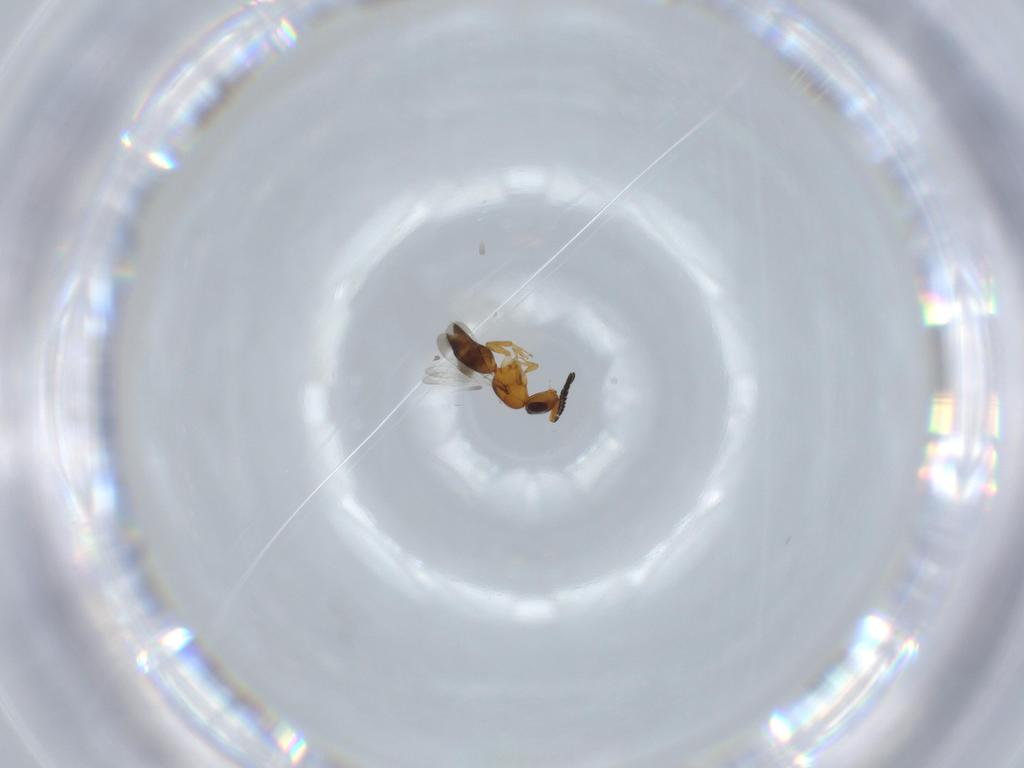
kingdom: Animalia
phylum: Arthropoda
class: Insecta
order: Hymenoptera
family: Ceraphronidae
